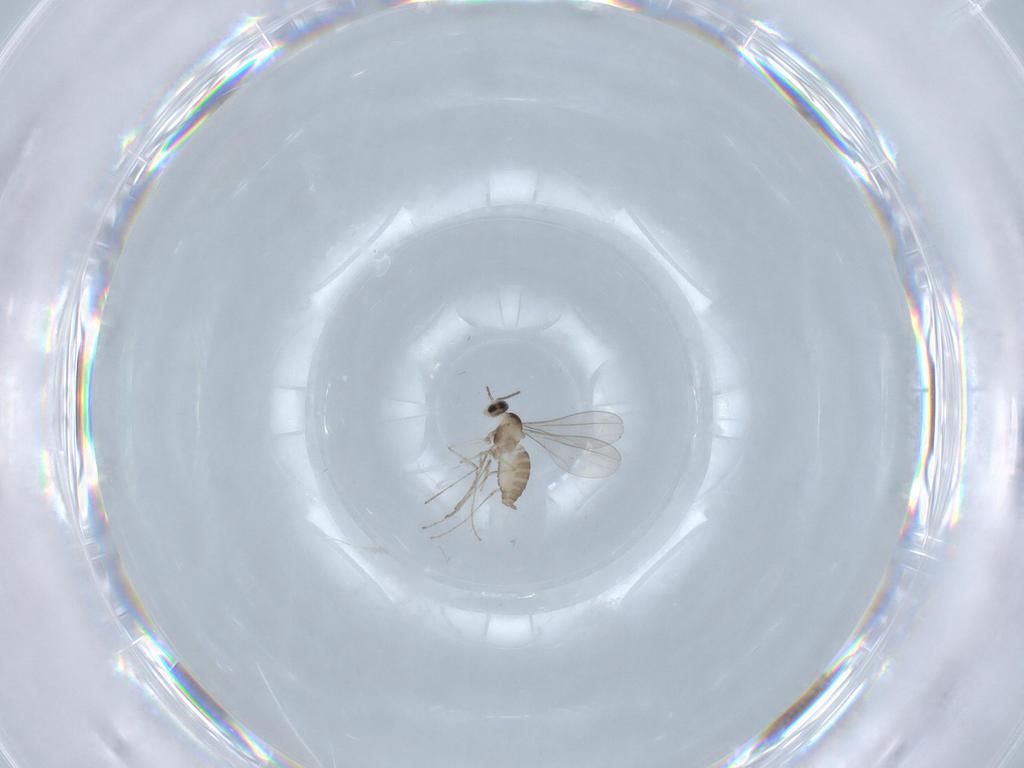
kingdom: Animalia
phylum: Arthropoda
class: Insecta
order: Diptera
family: Cecidomyiidae
